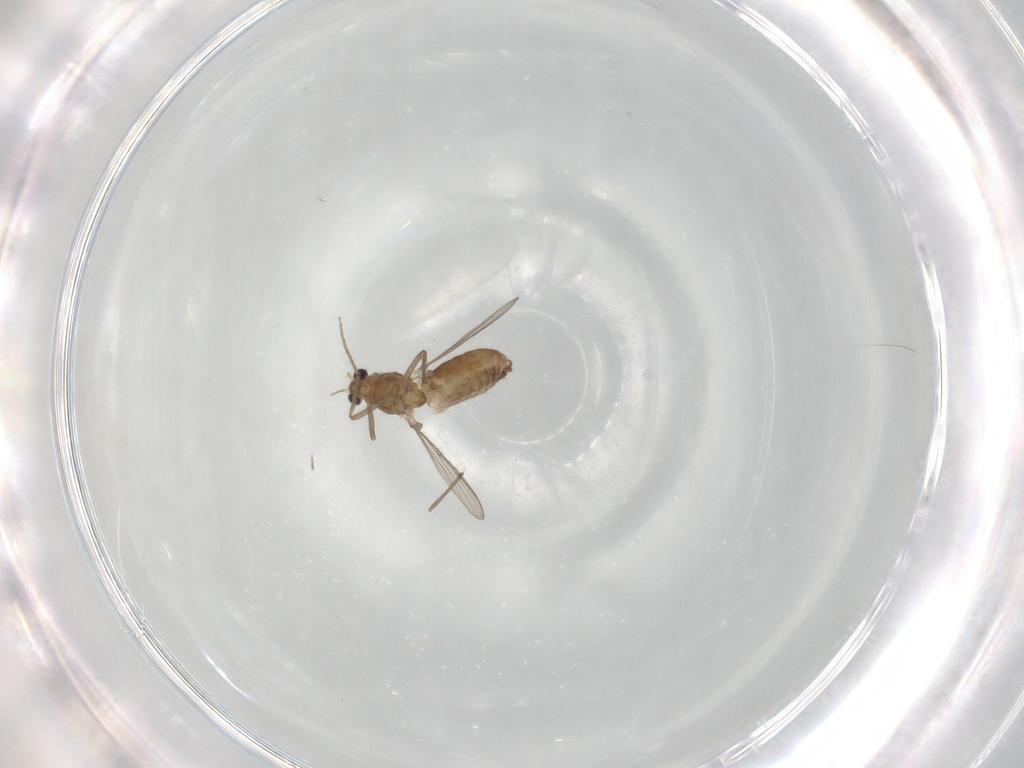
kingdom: Animalia
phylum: Arthropoda
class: Insecta
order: Diptera
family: Chironomidae
